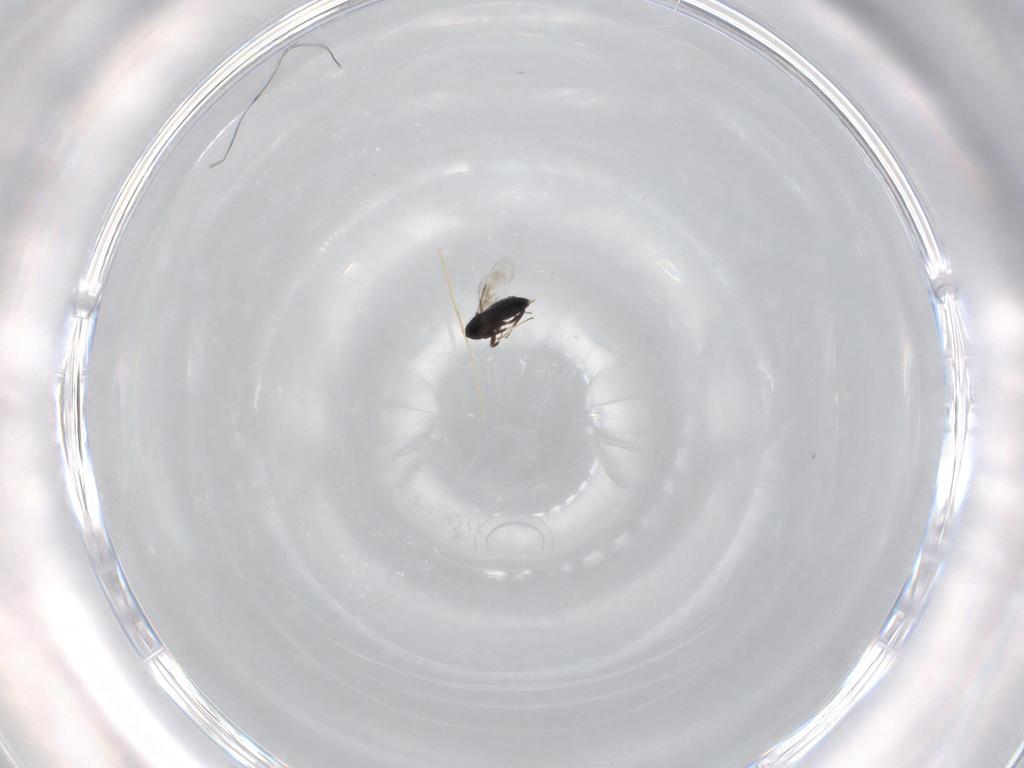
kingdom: Animalia
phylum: Arthropoda
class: Insecta
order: Hymenoptera
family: Signiphoridae
